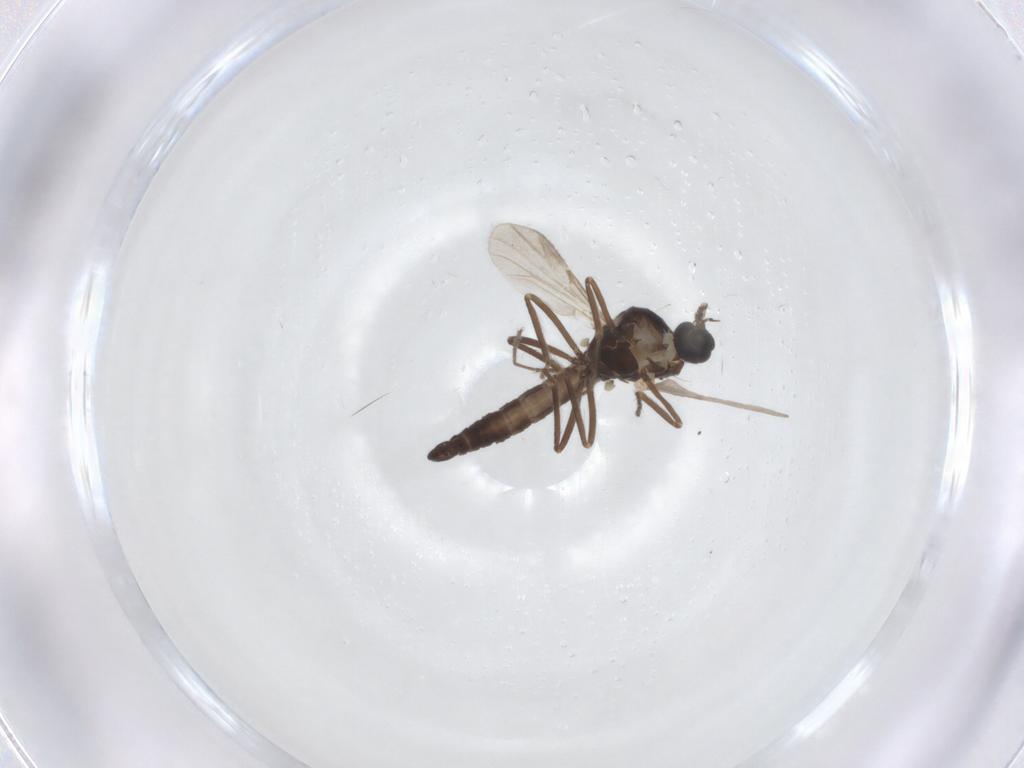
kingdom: Animalia
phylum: Arthropoda
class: Insecta
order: Diptera
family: Ceratopogonidae
